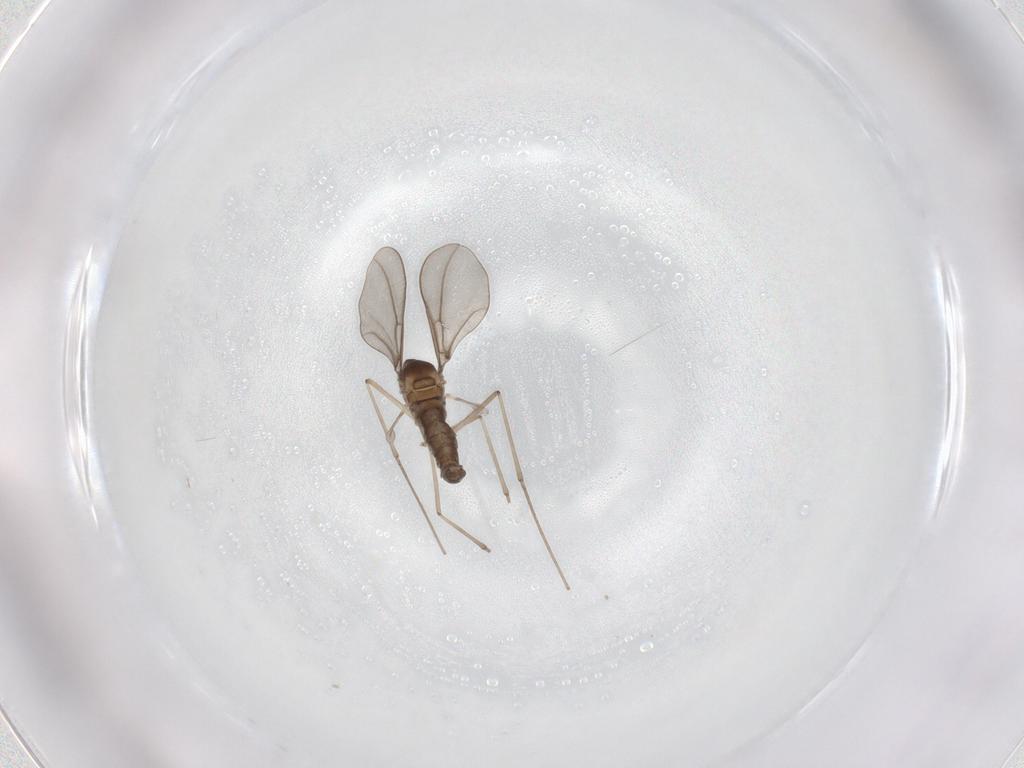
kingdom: Animalia
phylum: Arthropoda
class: Insecta
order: Diptera
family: Cecidomyiidae
